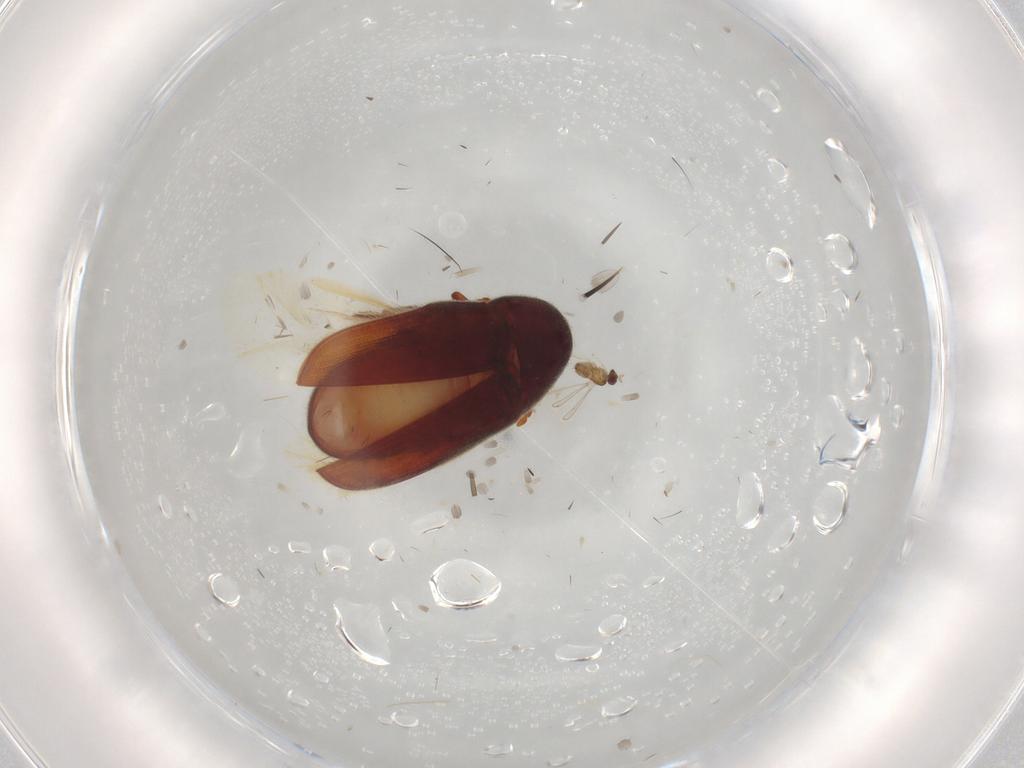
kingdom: Animalia
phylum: Arthropoda
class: Insecta
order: Coleoptera
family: Throscidae
